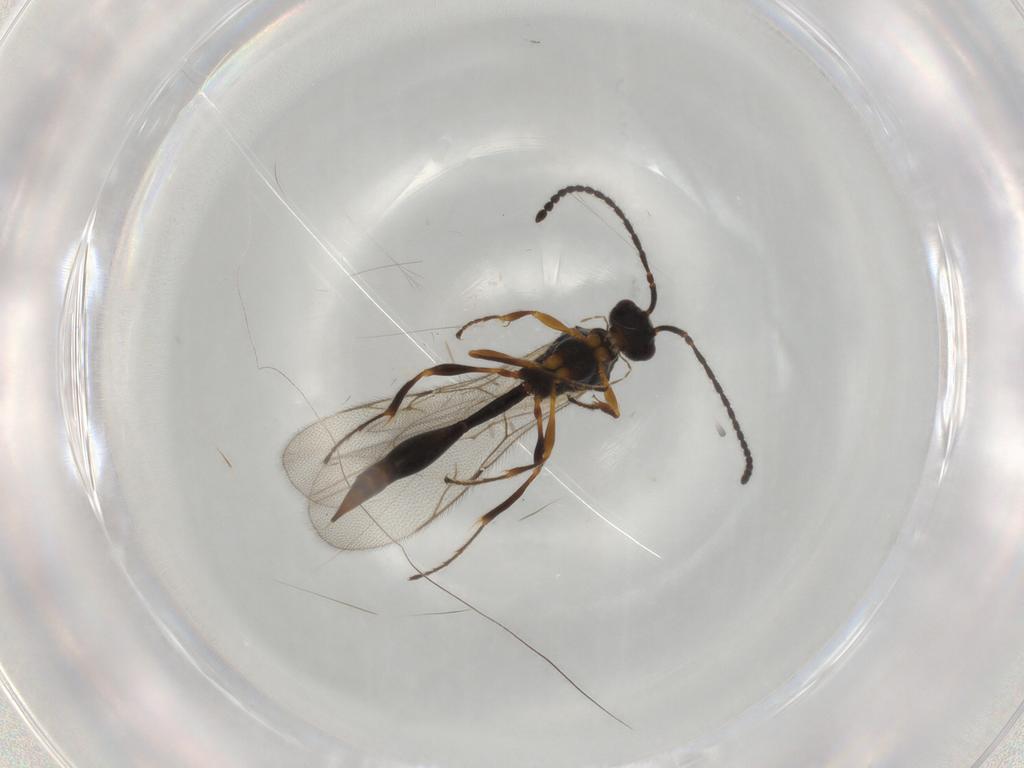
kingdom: Animalia
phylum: Arthropoda
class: Insecta
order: Hymenoptera
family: Diapriidae
